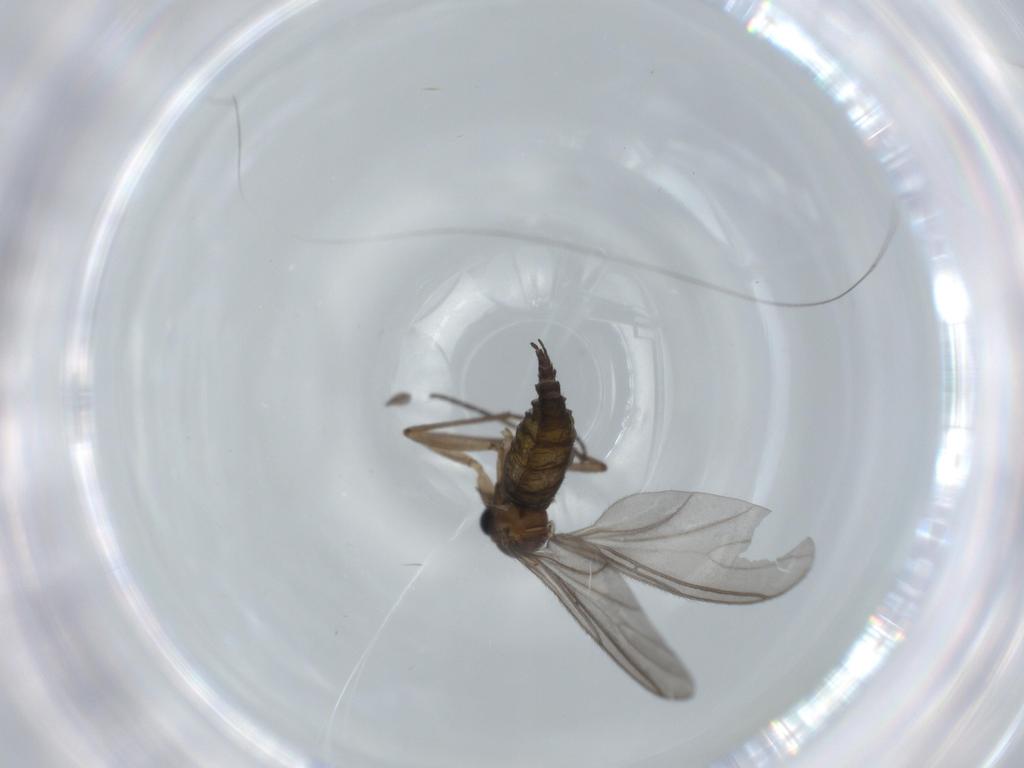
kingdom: Animalia
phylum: Arthropoda
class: Insecta
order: Diptera
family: Sciaridae
